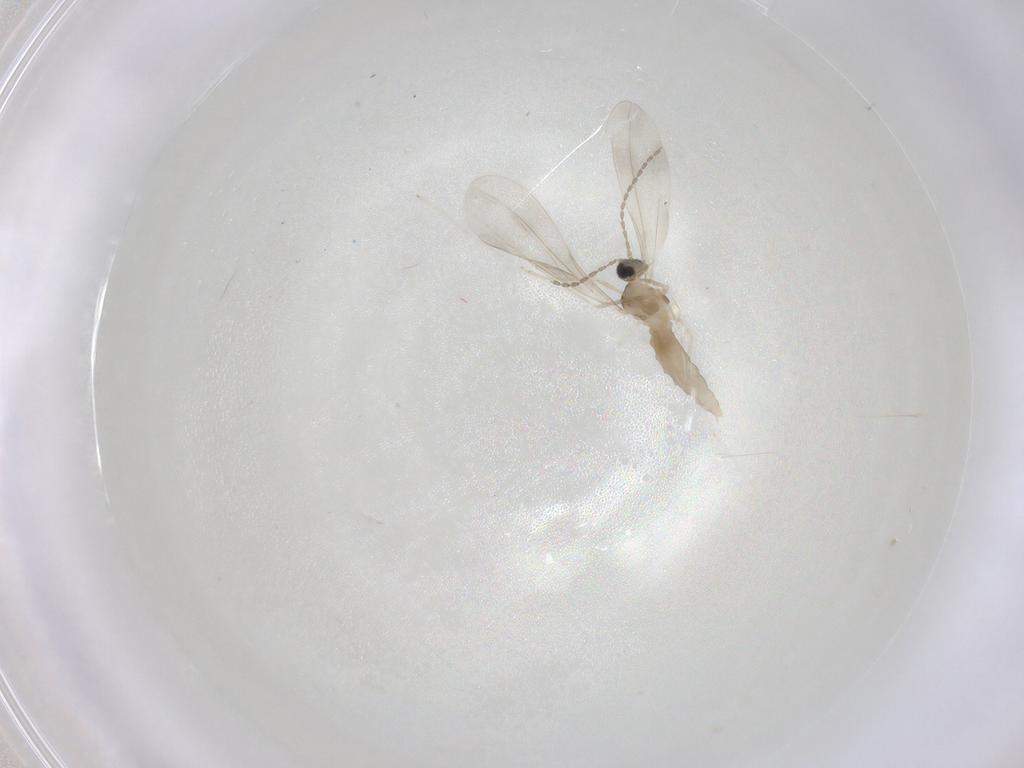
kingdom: Animalia
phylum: Arthropoda
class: Insecta
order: Diptera
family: Cecidomyiidae
